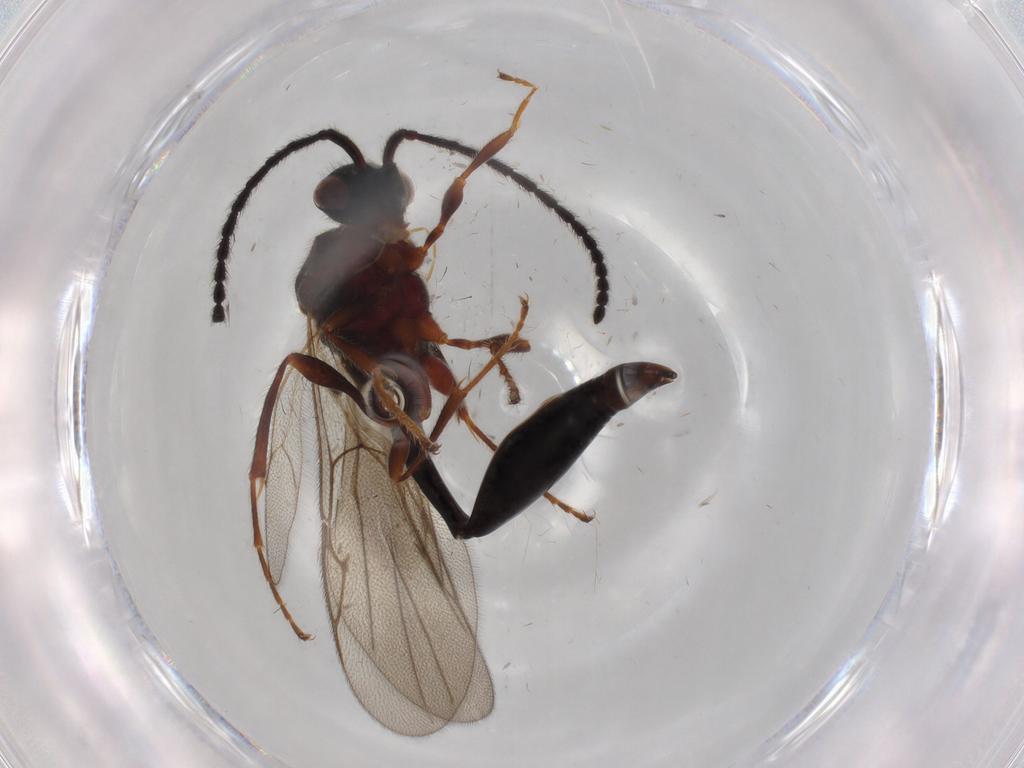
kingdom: Animalia
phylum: Arthropoda
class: Insecta
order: Hymenoptera
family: Diapriidae
